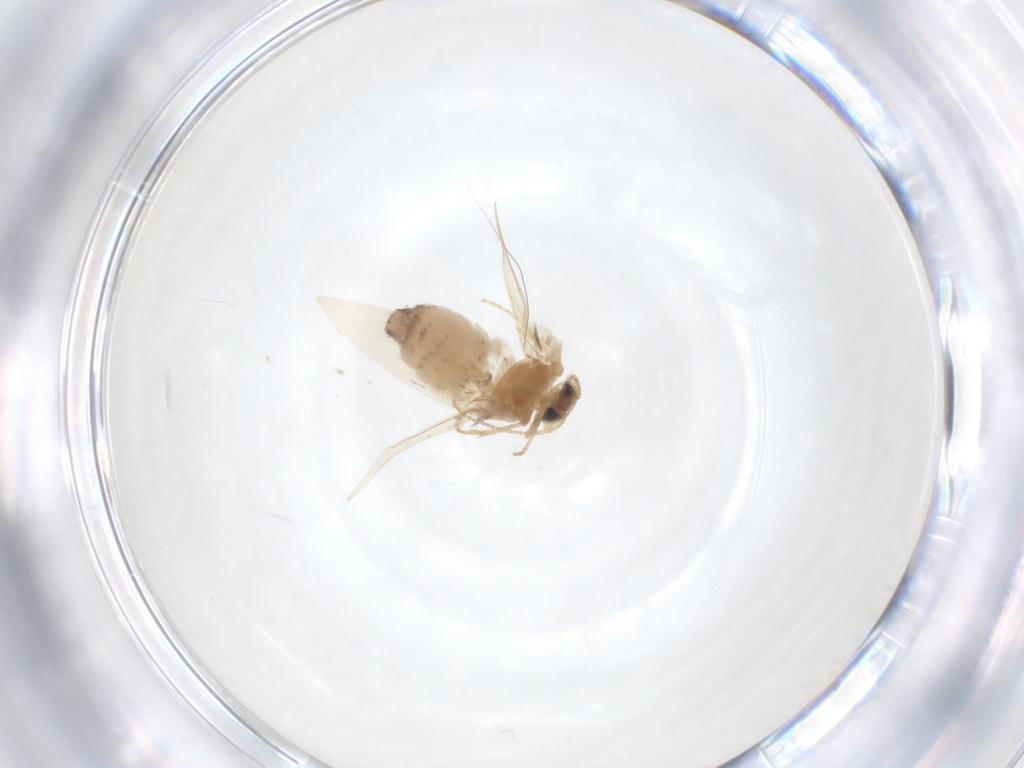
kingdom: Animalia
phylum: Arthropoda
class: Insecta
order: Lepidoptera
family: Nepticulidae
